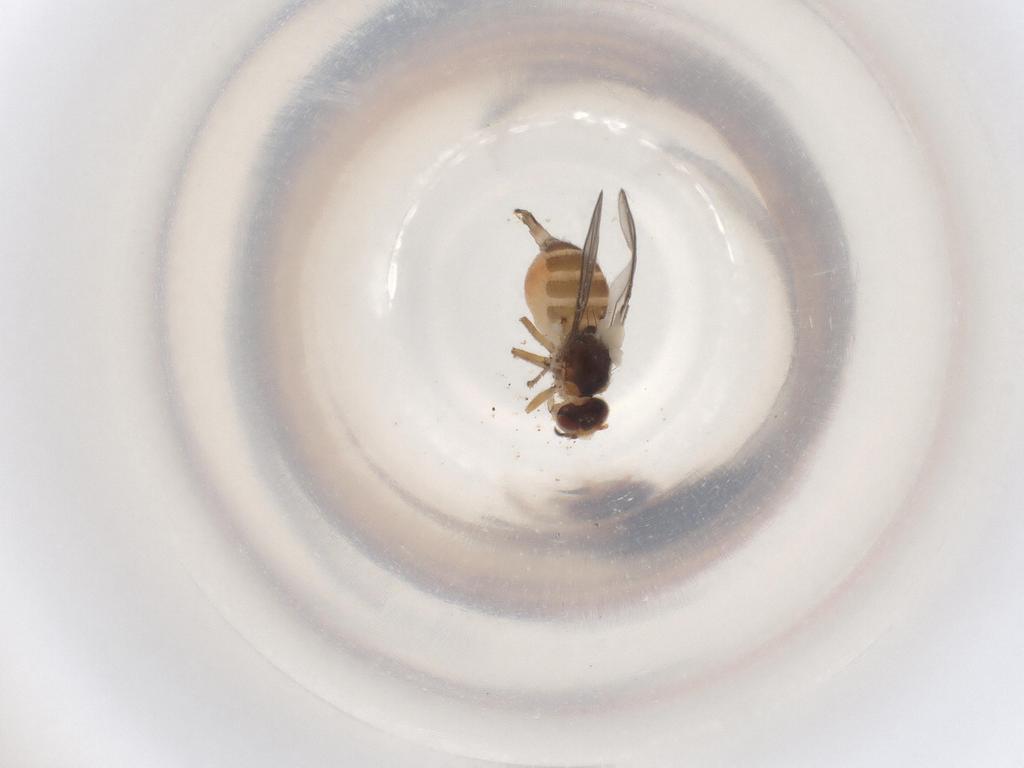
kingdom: Animalia
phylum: Arthropoda
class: Insecta
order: Diptera
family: Chloropidae
